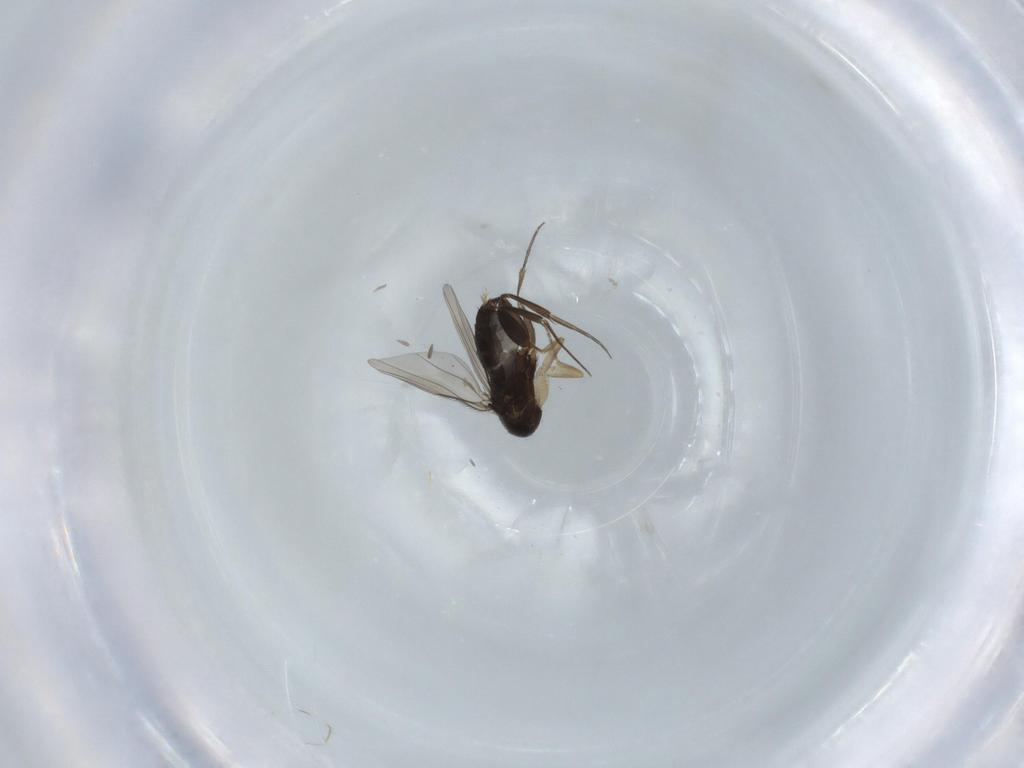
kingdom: Animalia
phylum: Arthropoda
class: Insecta
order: Diptera
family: Phoridae
